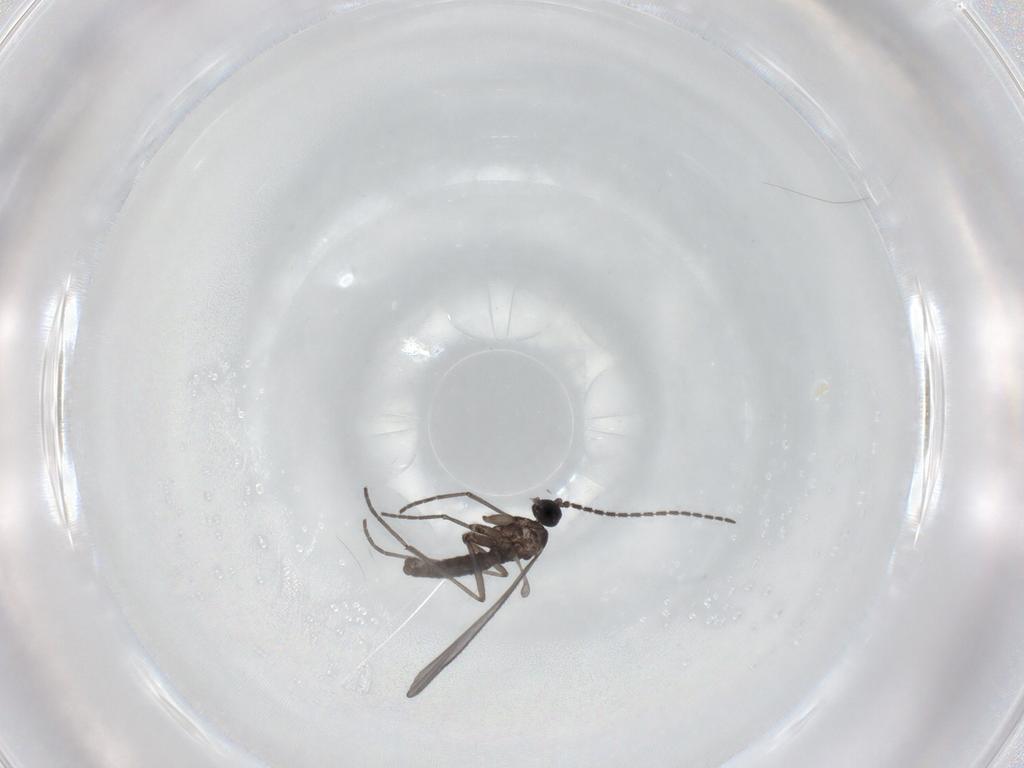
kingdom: Animalia
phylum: Arthropoda
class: Insecta
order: Diptera
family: Sciaridae
